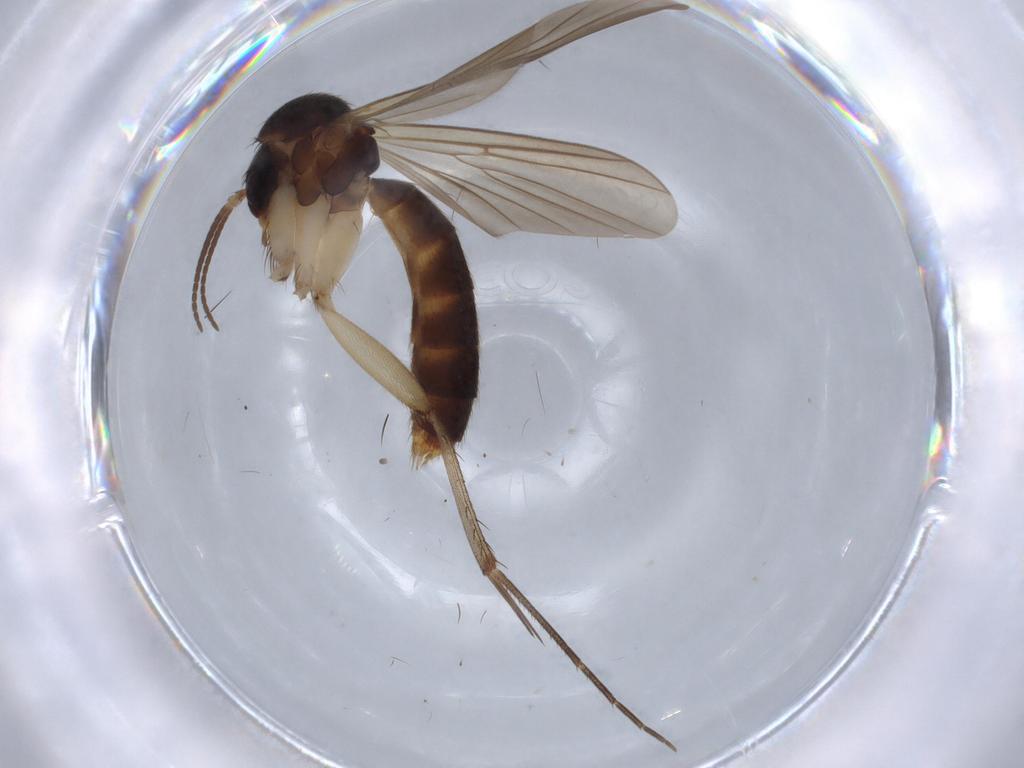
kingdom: Animalia
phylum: Arthropoda
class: Insecta
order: Diptera
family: Mycetophilidae
